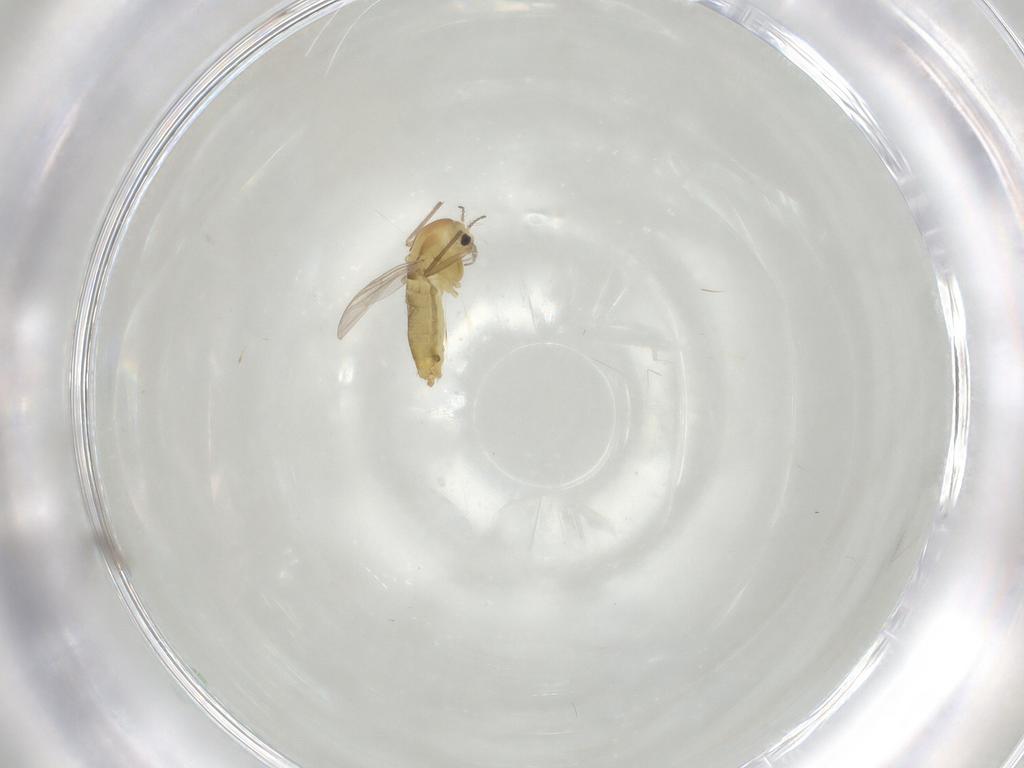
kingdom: Animalia
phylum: Arthropoda
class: Insecta
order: Diptera
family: Chironomidae
